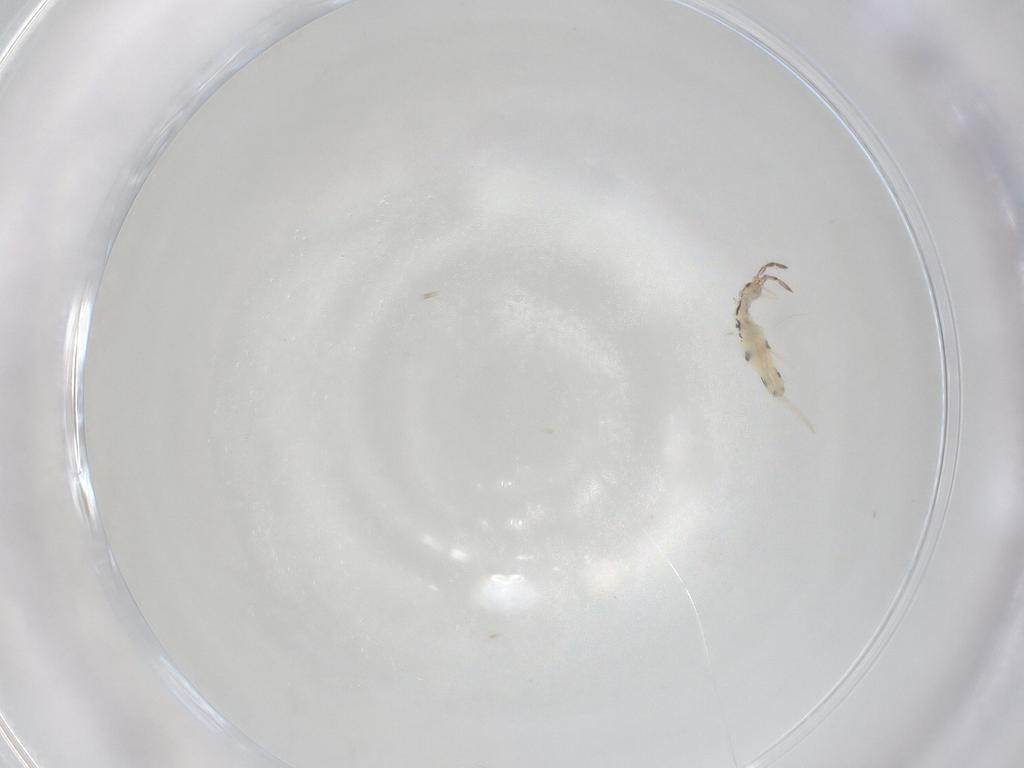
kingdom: Animalia
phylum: Arthropoda
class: Collembola
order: Entomobryomorpha
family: Entomobryidae
